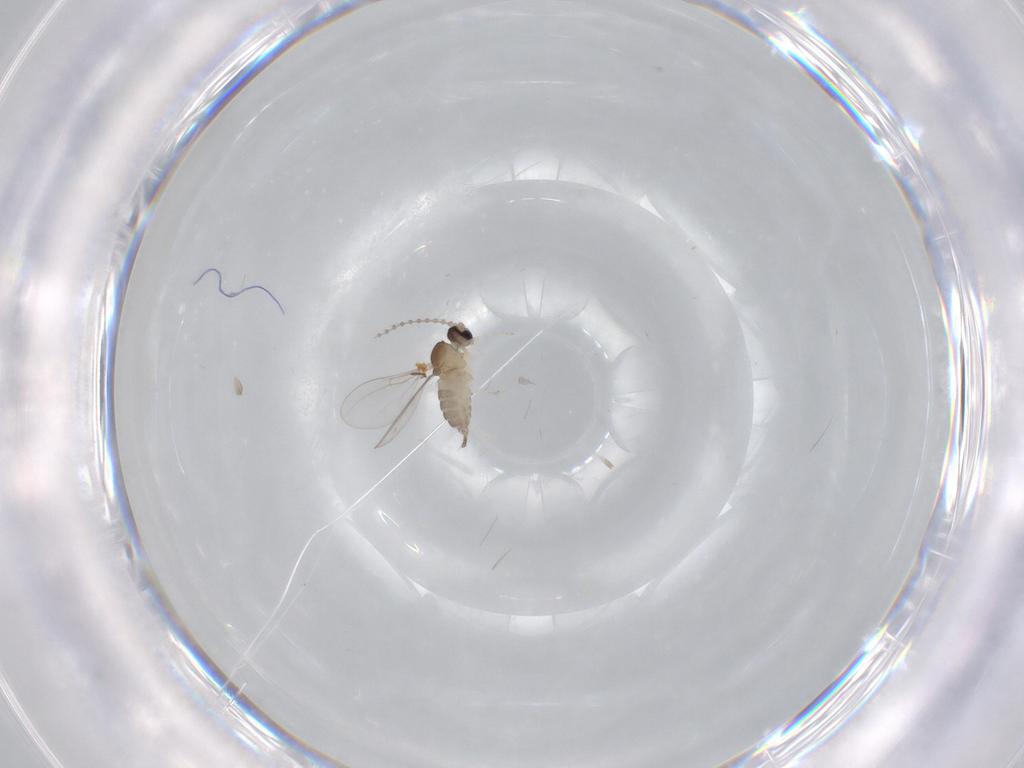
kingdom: Animalia
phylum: Arthropoda
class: Insecta
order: Diptera
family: Cecidomyiidae
